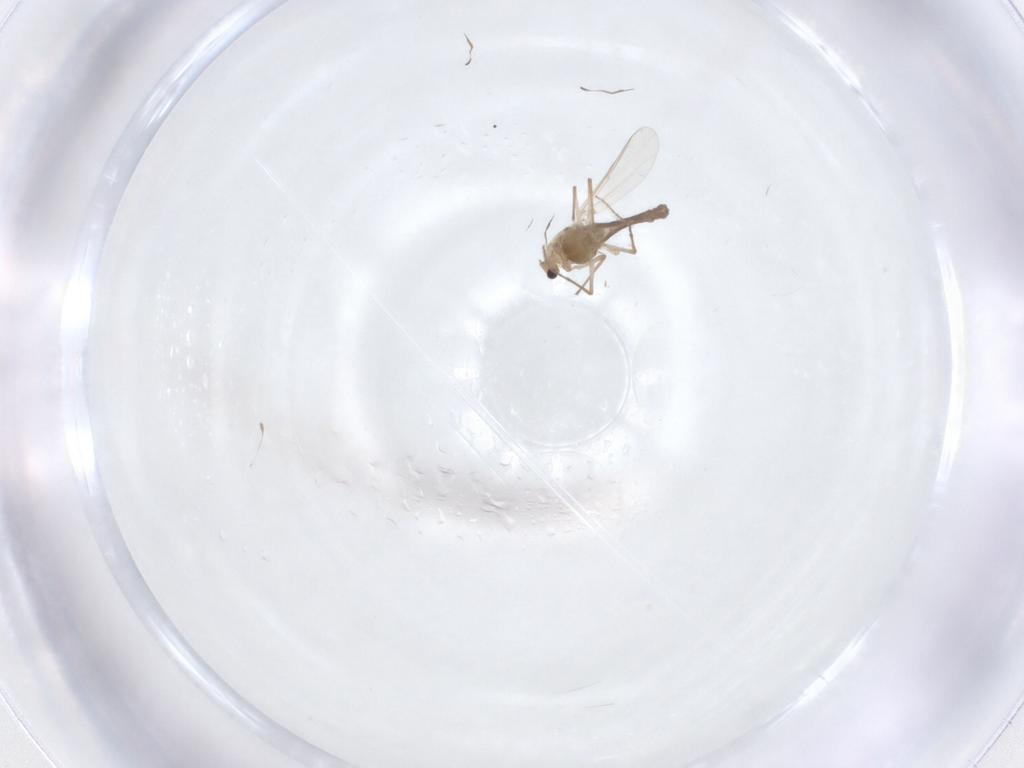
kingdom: Animalia
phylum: Arthropoda
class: Insecta
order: Diptera
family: Chironomidae
